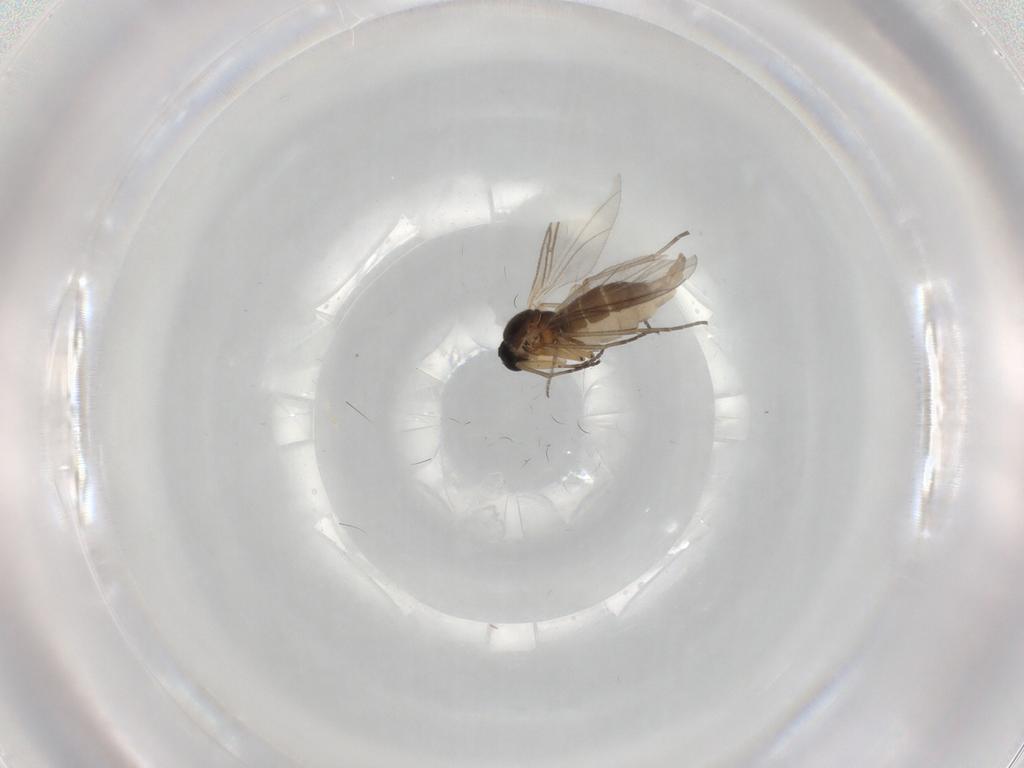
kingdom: Animalia
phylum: Arthropoda
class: Insecta
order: Diptera
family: Sciaridae
